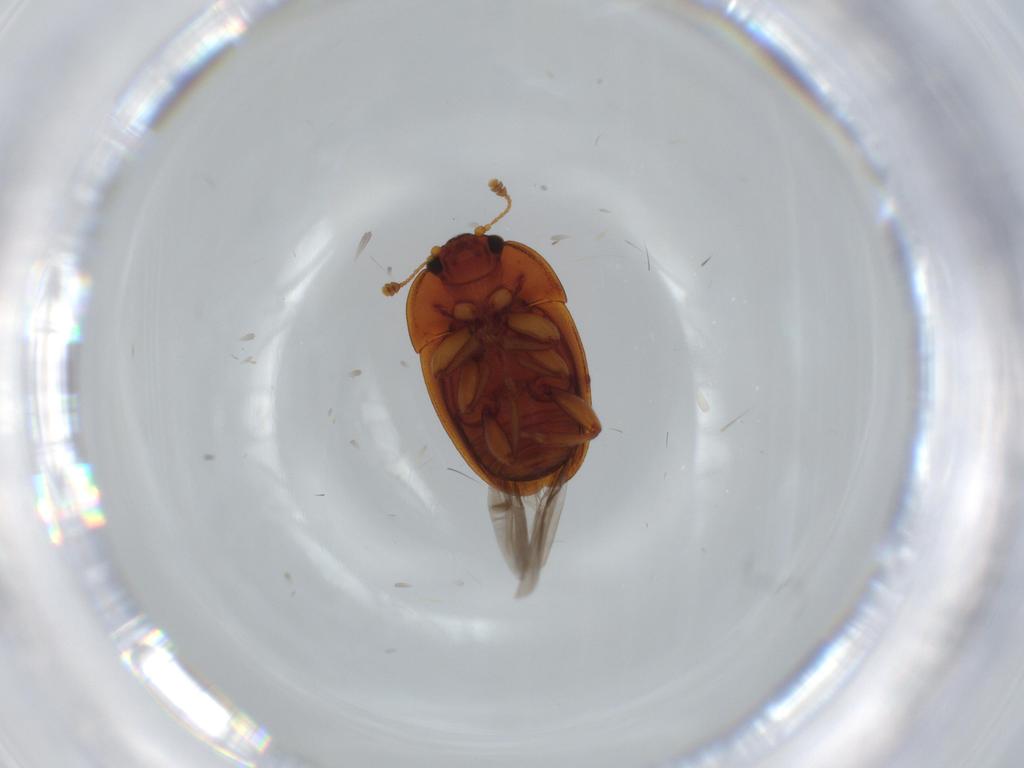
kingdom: Animalia
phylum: Arthropoda
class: Insecta
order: Coleoptera
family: Coccinellidae
